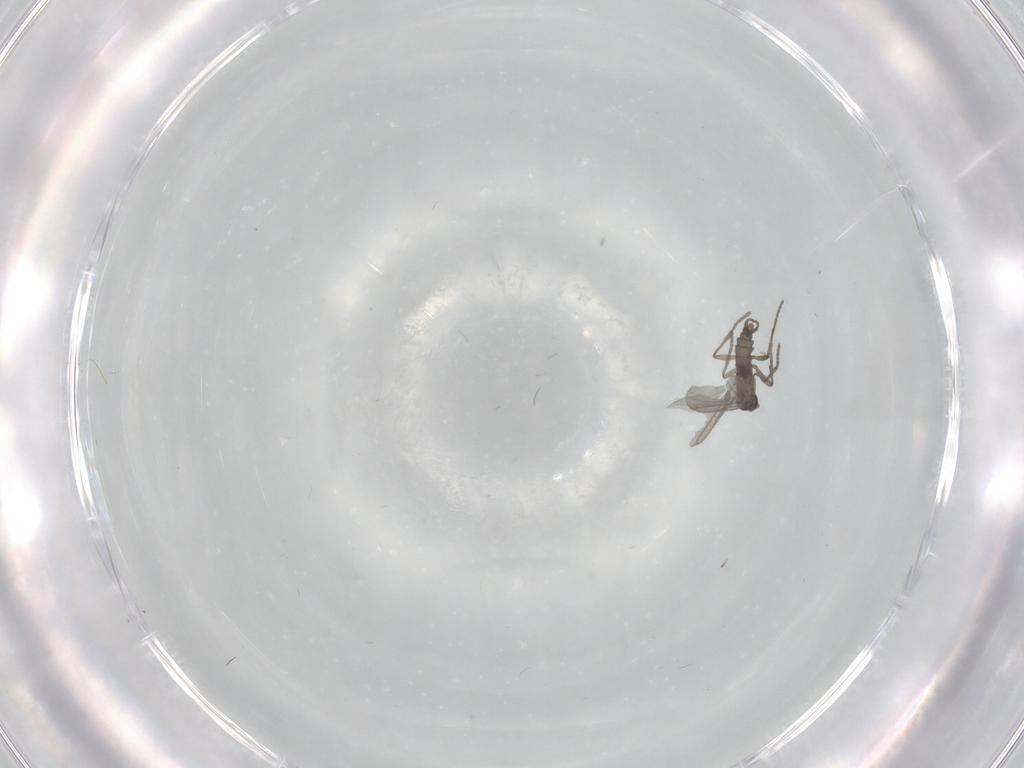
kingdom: Animalia
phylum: Arthropoda
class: Insecta
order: Diptera
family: Sciaridae
